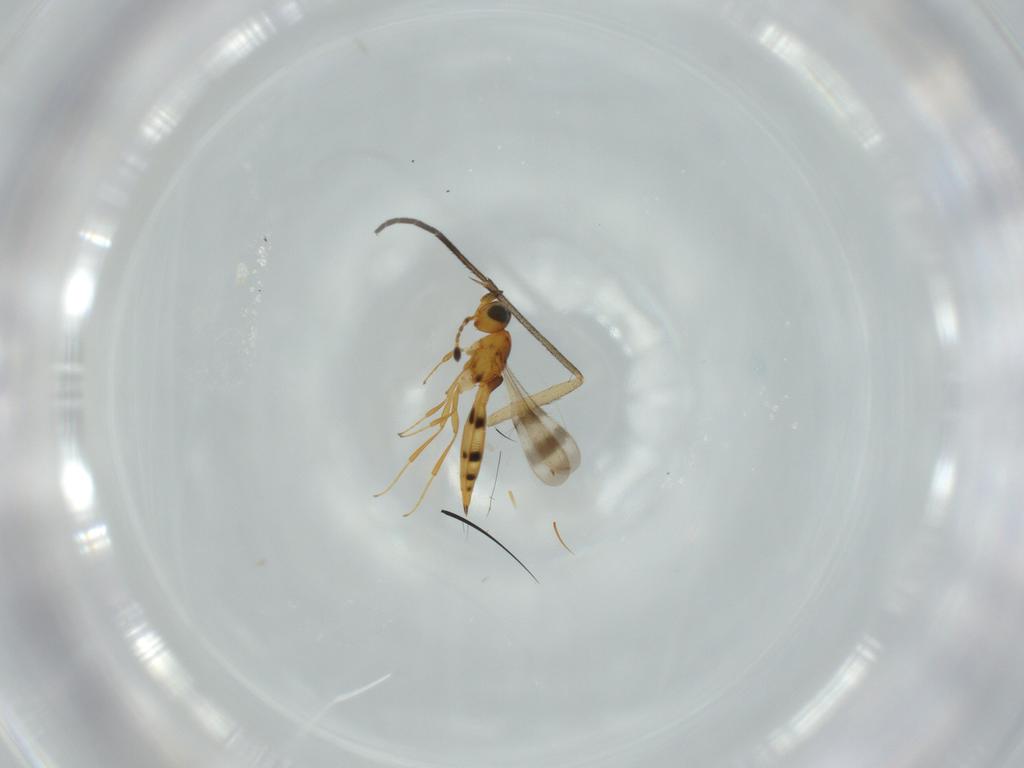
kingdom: Animalia
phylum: Arthropoda
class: Insecta
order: Hymenoptera
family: Scelionidae
